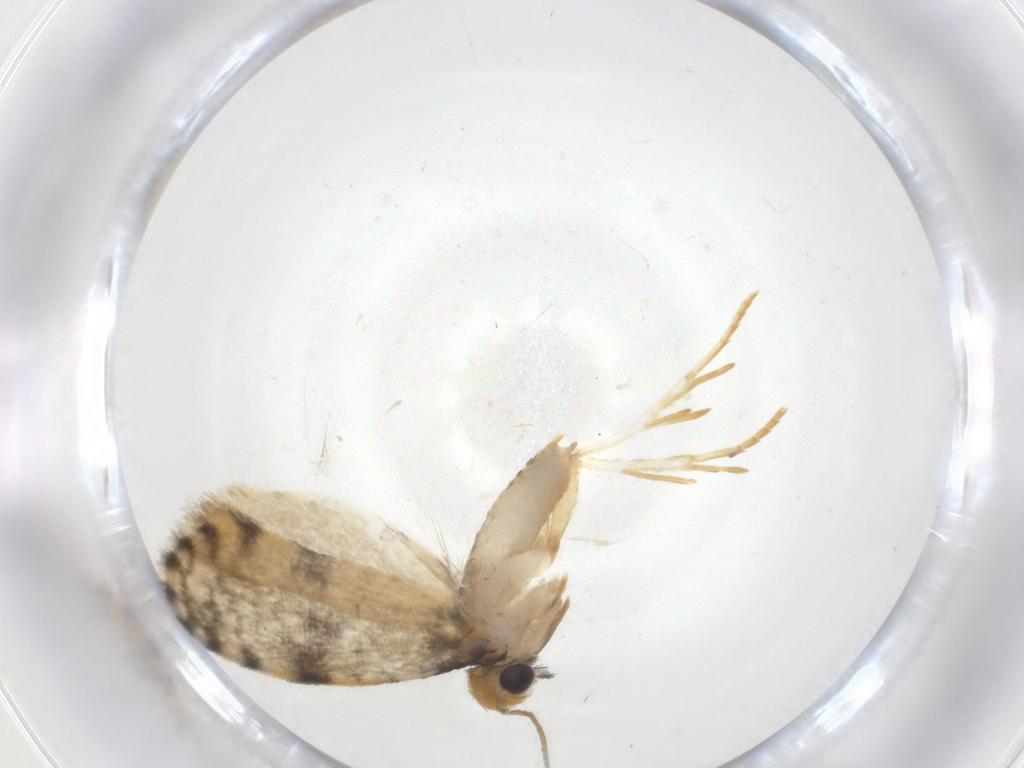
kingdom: Animalia
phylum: Arthropoda
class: Insecta
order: Lepidoptera
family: Psychidae
